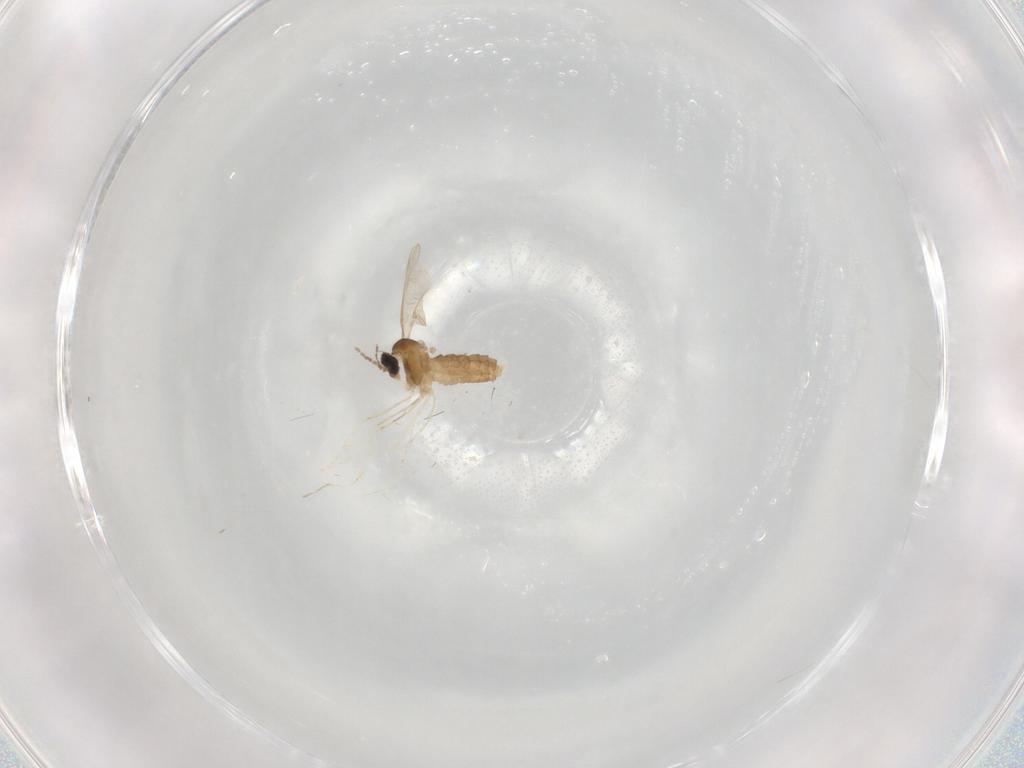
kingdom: Animalia
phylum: Arthropoda
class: Insecta
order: Diptera
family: Cecidomyiidae
